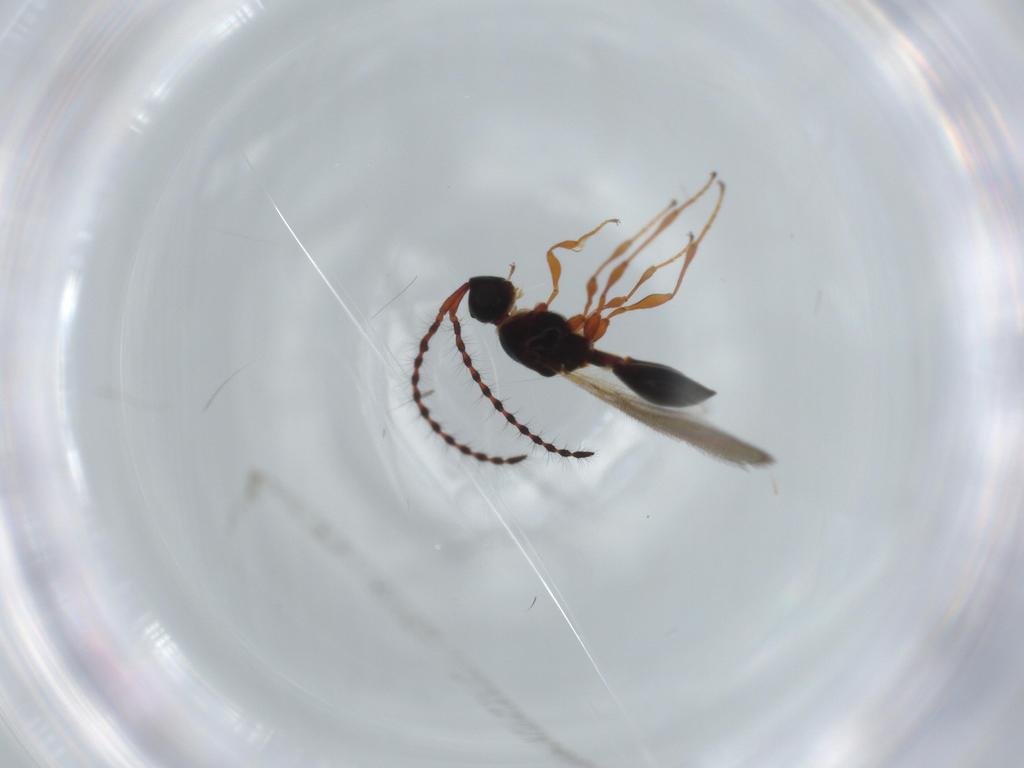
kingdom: Animalia
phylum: Arthropoda
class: Insecta
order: Hymenoptera
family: Diapriidae
